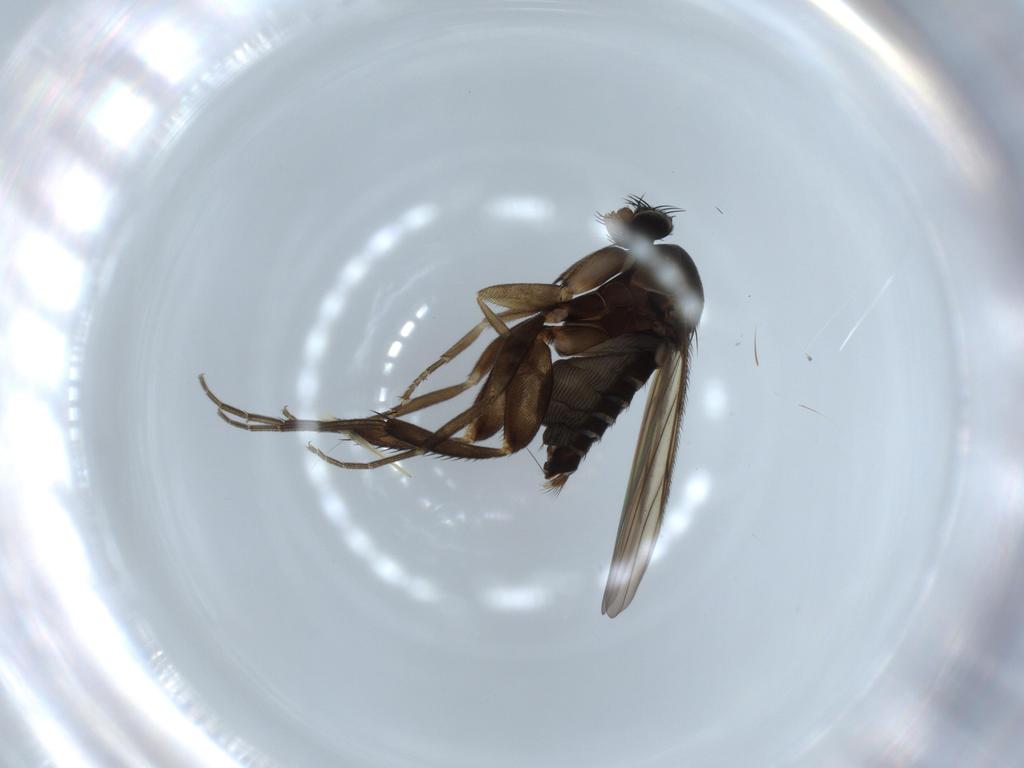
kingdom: Animalia
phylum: Arthropoda
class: Insecta
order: Diptera
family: Phoridae
